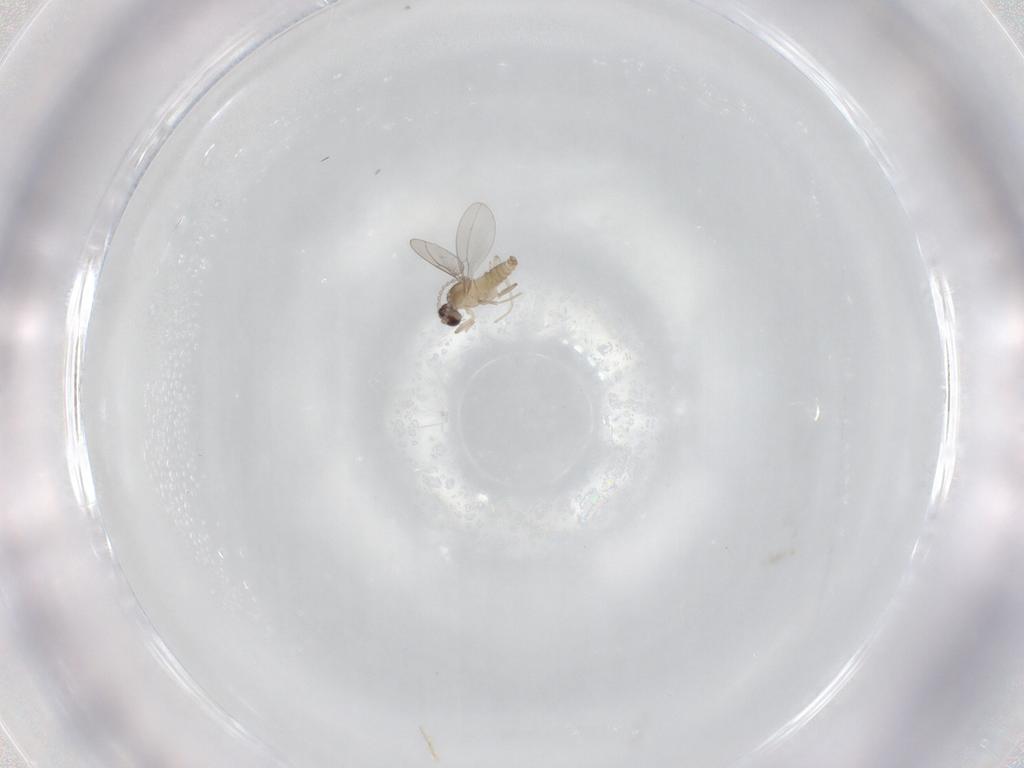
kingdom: Animalia
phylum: Arthropoda
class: Insecta
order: Diptera
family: Cecidomyiidae
